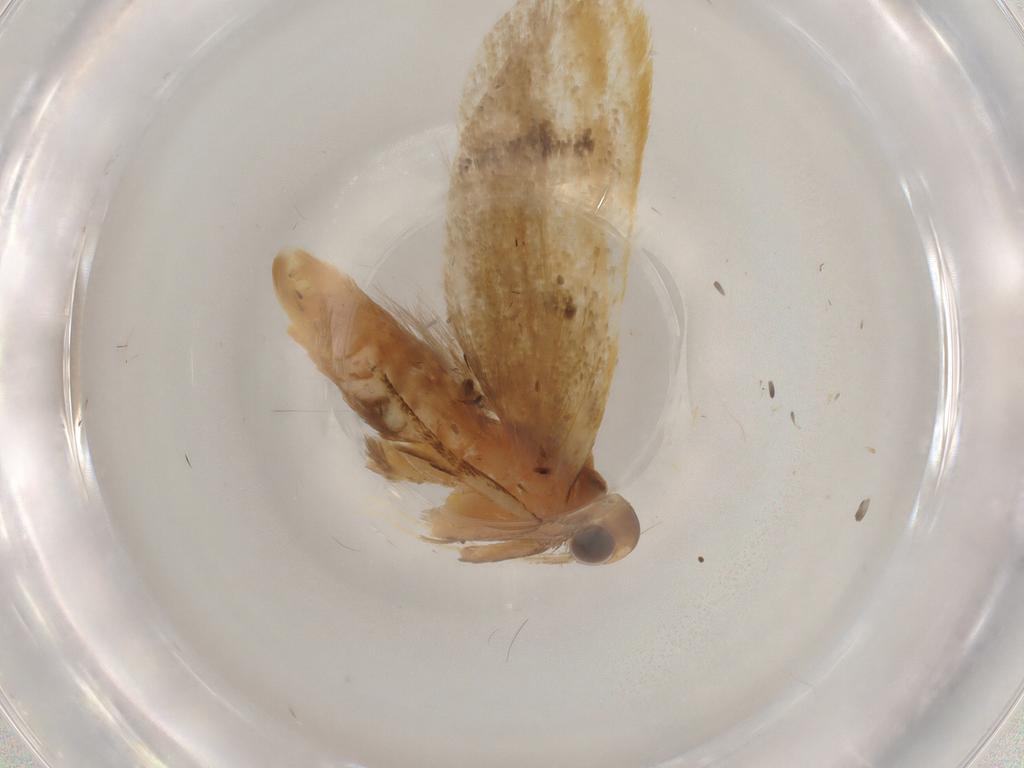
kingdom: Animalia
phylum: Arthropoda
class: Insecta
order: Lepidoptera
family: Lecithoceridae
